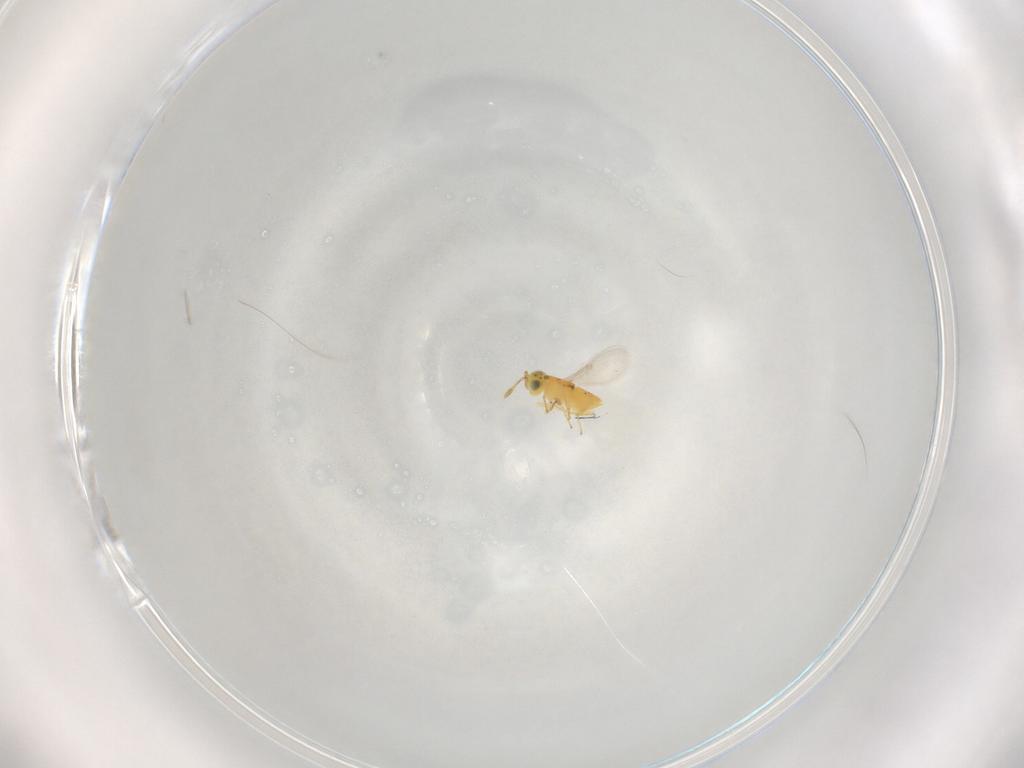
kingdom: Animalia
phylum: Arthropoda
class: Insecta
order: Hymenoptera
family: Encyrtidae
